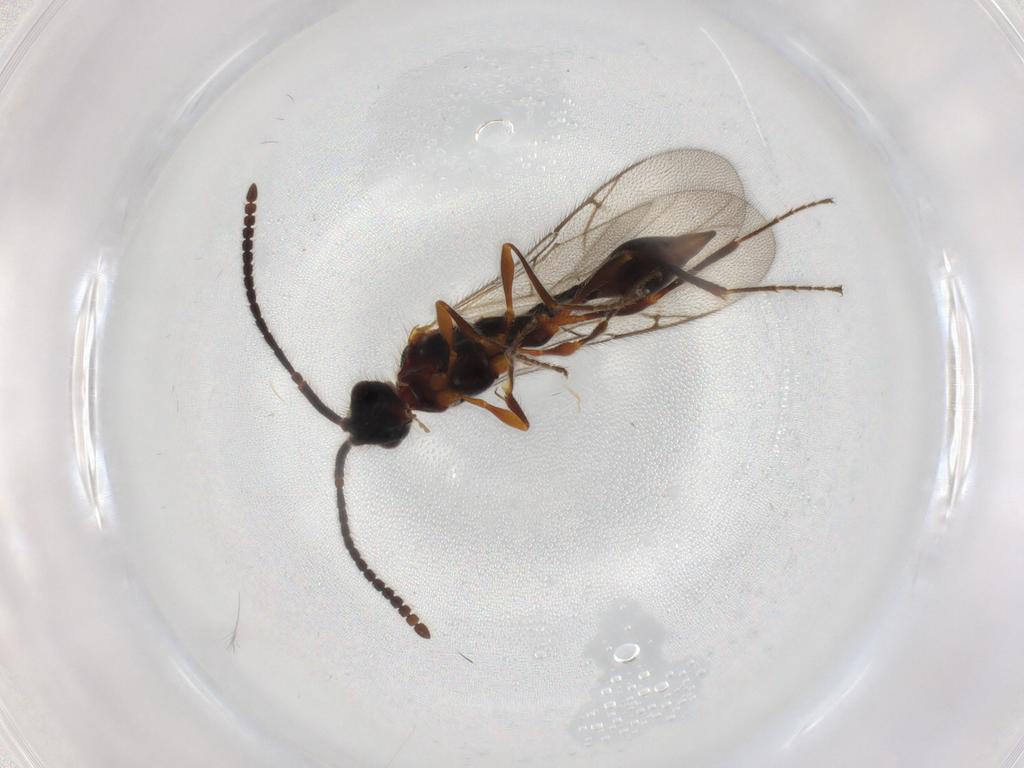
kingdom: Animalia
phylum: Arthropoda
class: Insecta
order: Hymenoptera
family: Diapriidae
